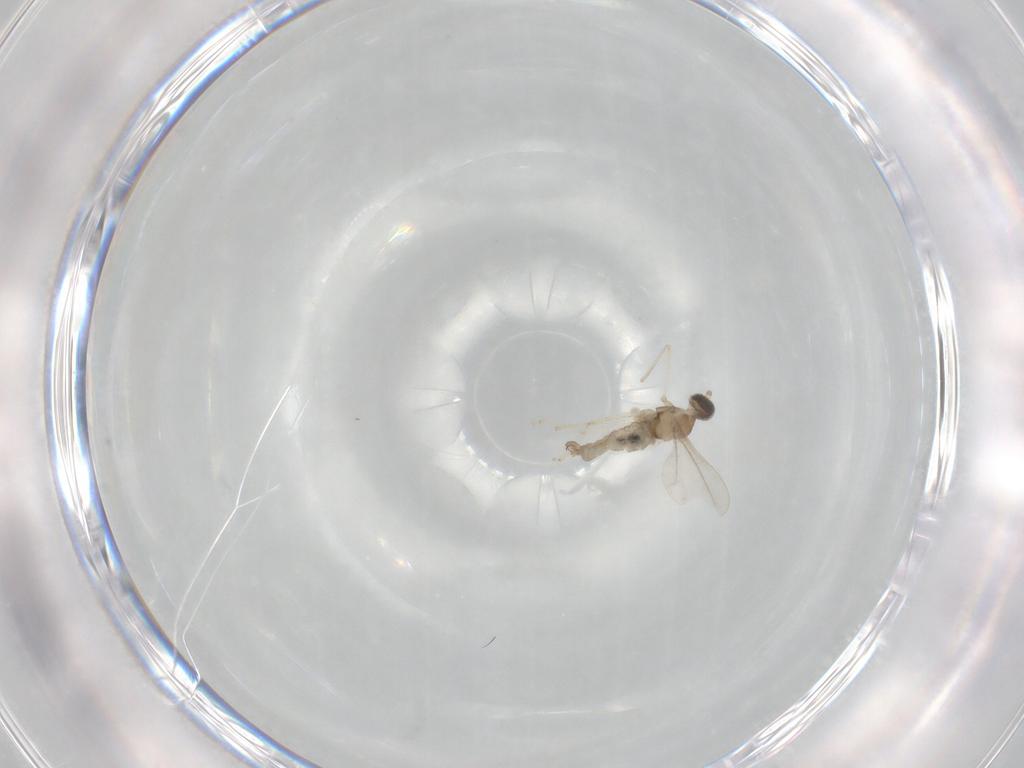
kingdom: Animalia
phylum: Arthropoda
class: Insecta
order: Diptera
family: Cecidomyiidae
